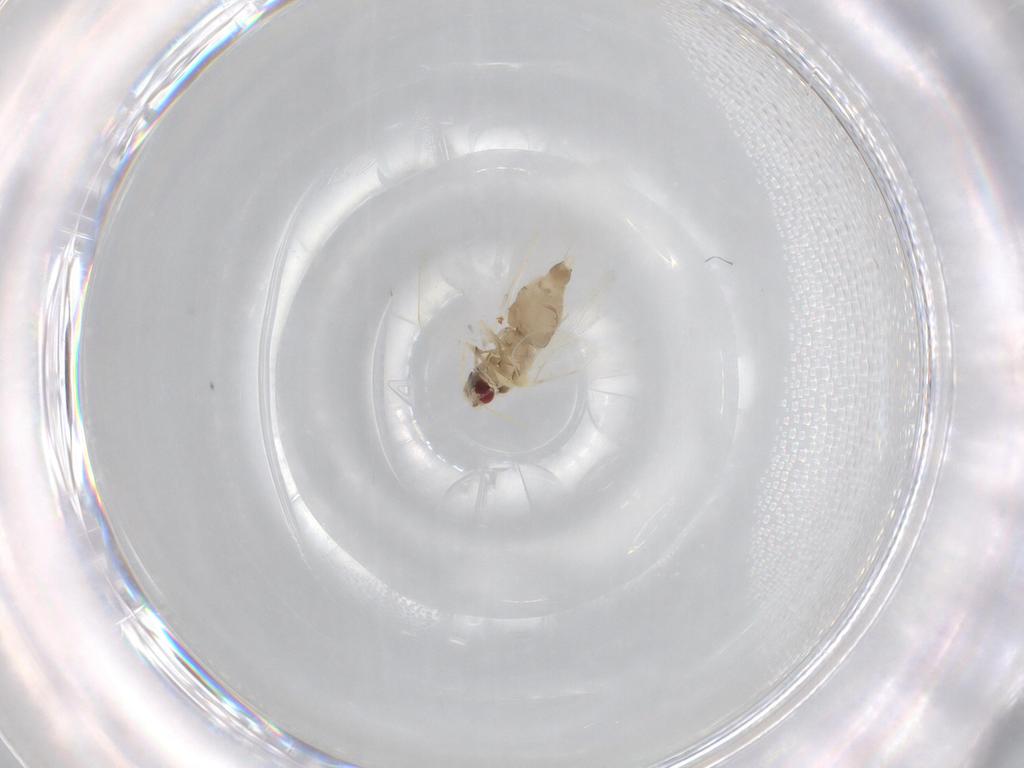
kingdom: Animalia
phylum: Arthropoda
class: Insecta
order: Hemiptera
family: Aleyrodidae
